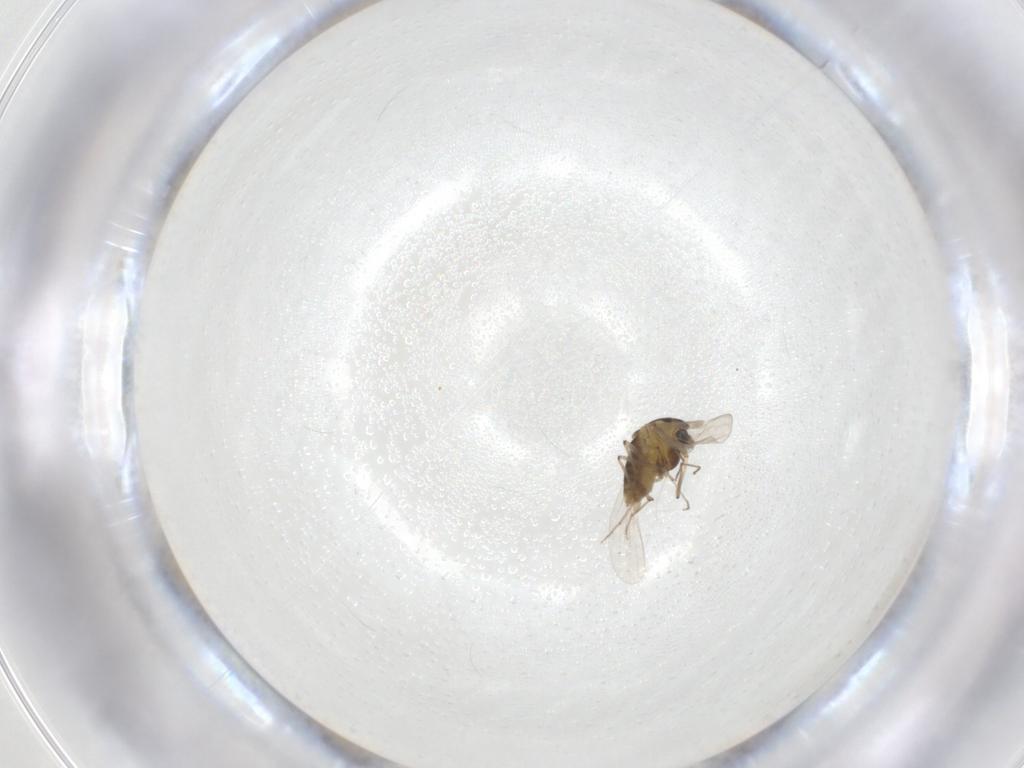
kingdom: Animalia
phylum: Arthropoda
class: Insecta
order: Diptera
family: Chironomidae
